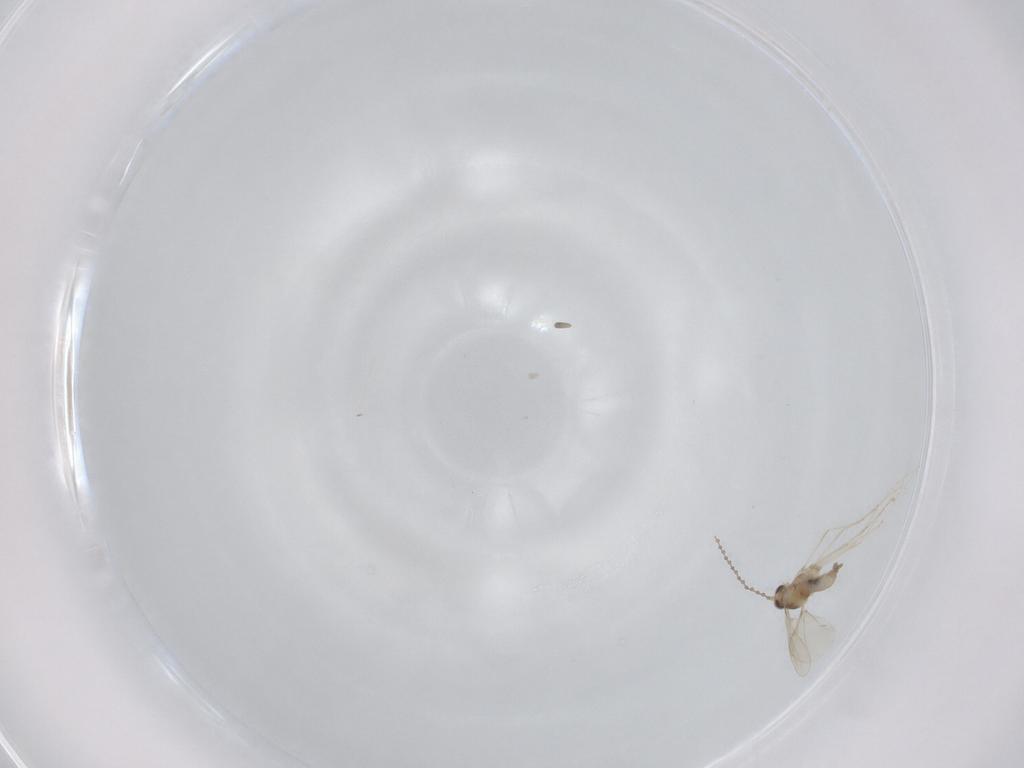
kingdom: Animalia
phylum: Arthropoda
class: Insecta
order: Diptera
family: Cecidomyiidae
